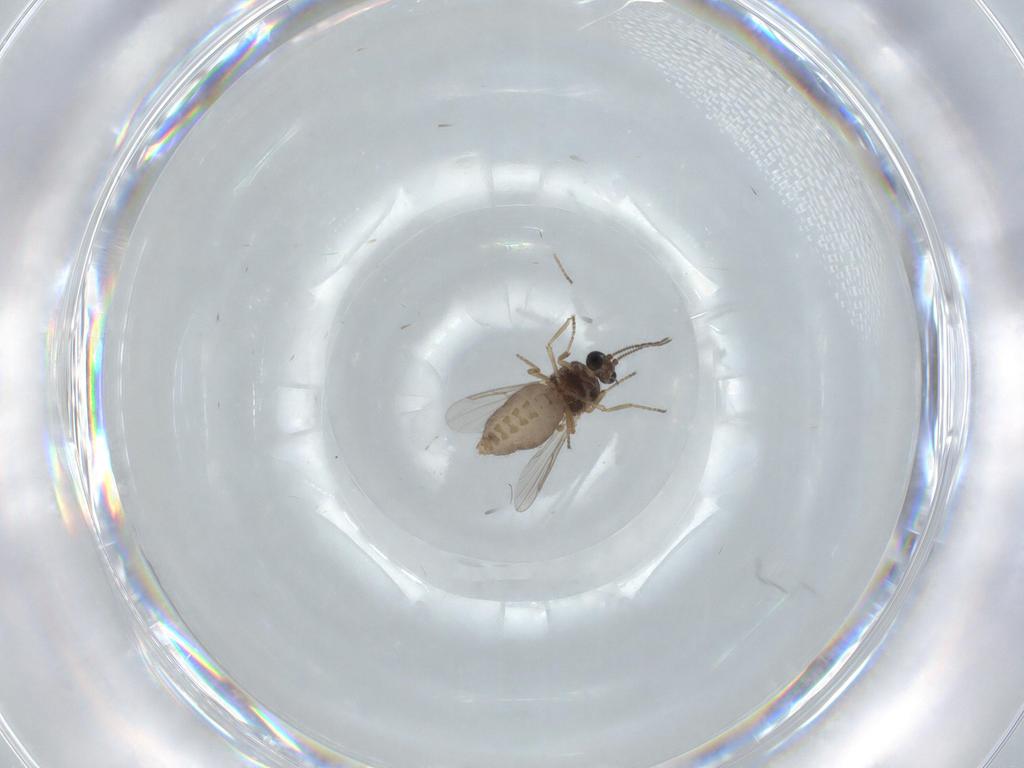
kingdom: Animalia
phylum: Arthropoda
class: Insecta
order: Diptera
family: Ceratopogonidae
